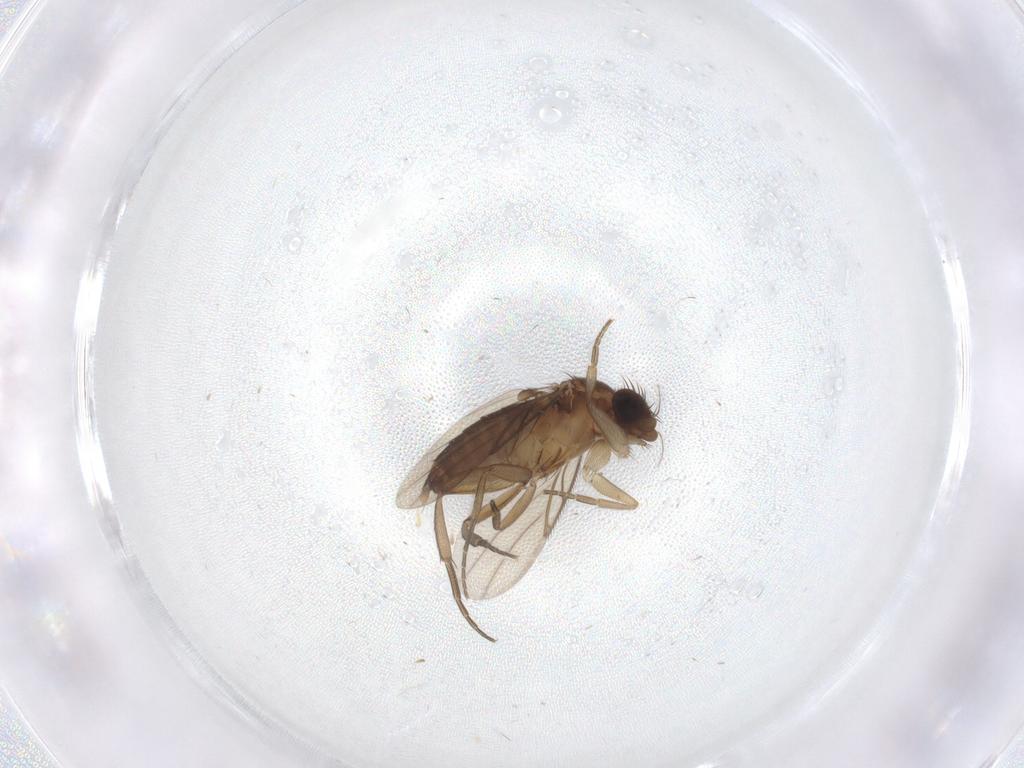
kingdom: Animalia
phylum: Arthropoda
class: Insecta
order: Diptera
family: Phoridae
